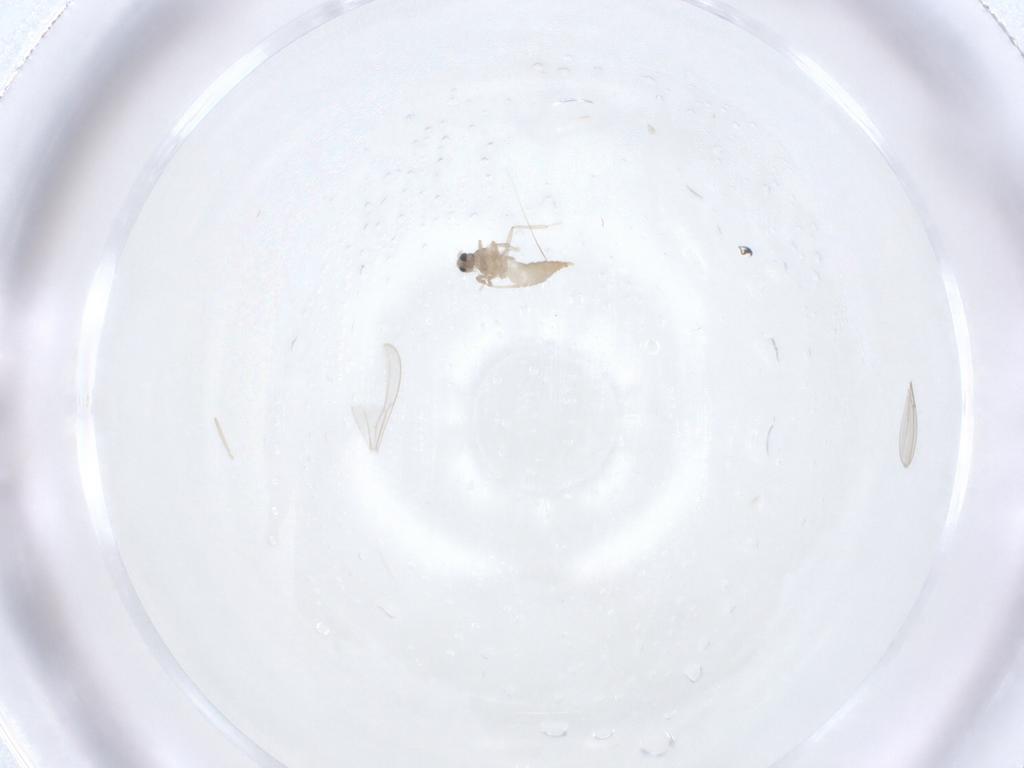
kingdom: Animalia
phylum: Arthropoda
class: Insecta
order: Diptera
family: Cecidomyiidae
